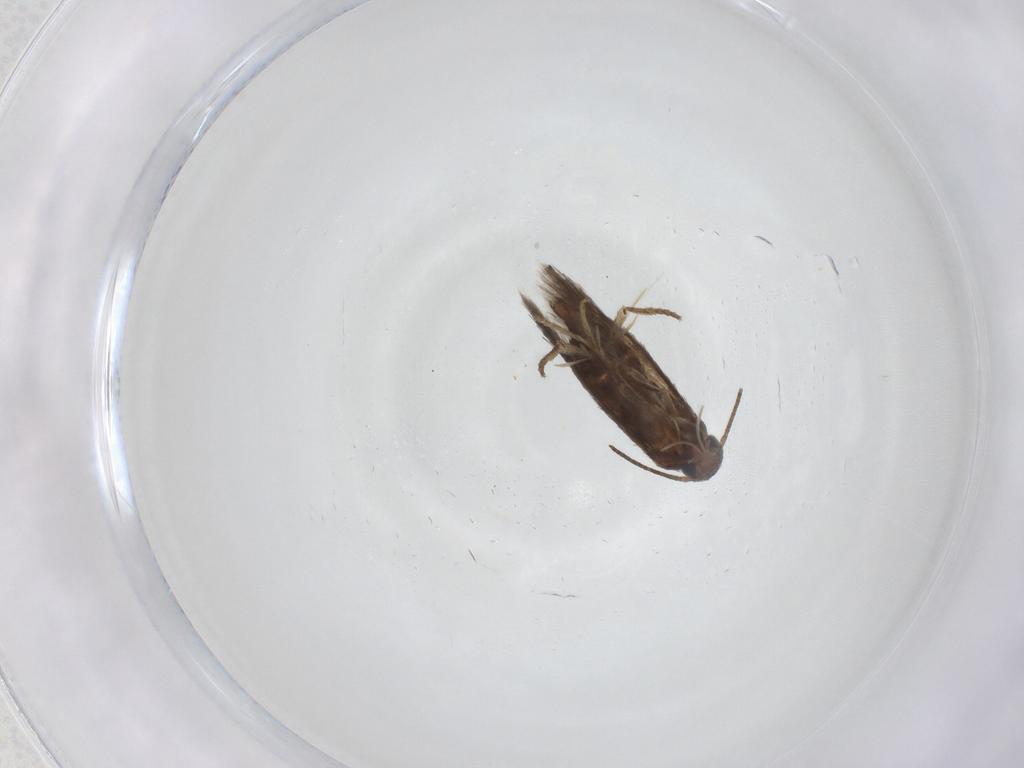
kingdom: Animalia
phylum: Arthropoda
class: Insecta
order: Lepidoptera
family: Heliozelidae
